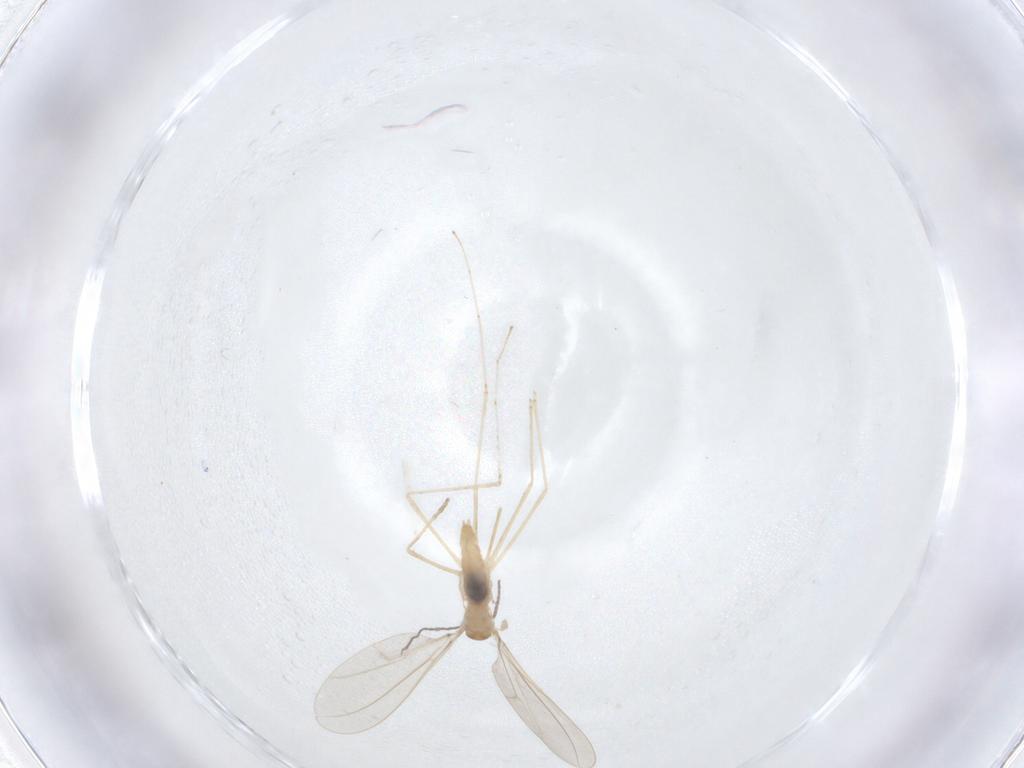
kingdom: Animalia
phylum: Arthropoda
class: Insecta
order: Diptera
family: Cecidomyiidae
